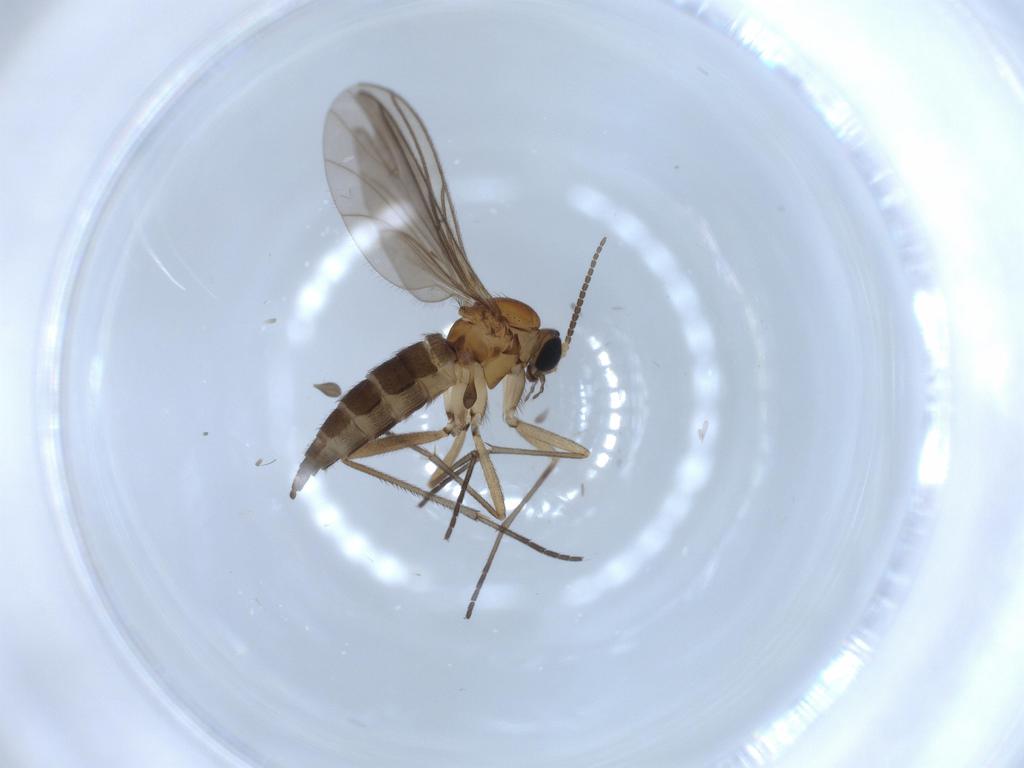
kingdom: Animalia
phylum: Arthropoda
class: Insecta
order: Diptera
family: Sciaridae
